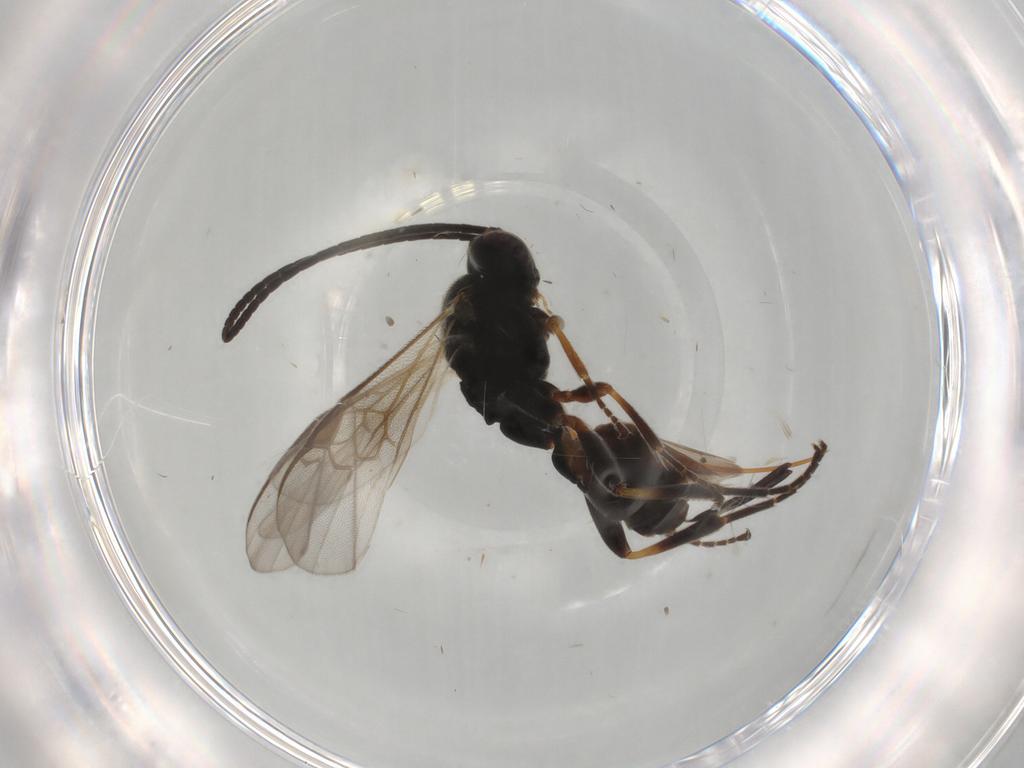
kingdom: Animalia
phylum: Arthropoda
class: Insecta
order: Hymenoptera
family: Braconidae
